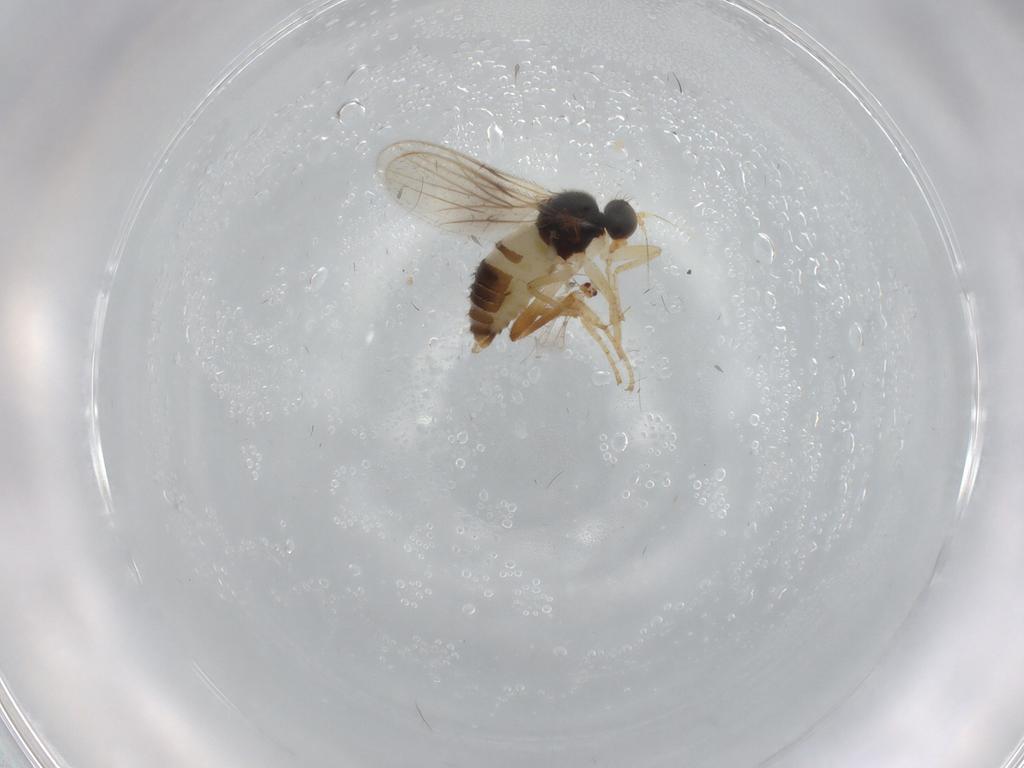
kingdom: Animalia
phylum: Arthropoda
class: Insecta
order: Diptera
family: Hybotidae
